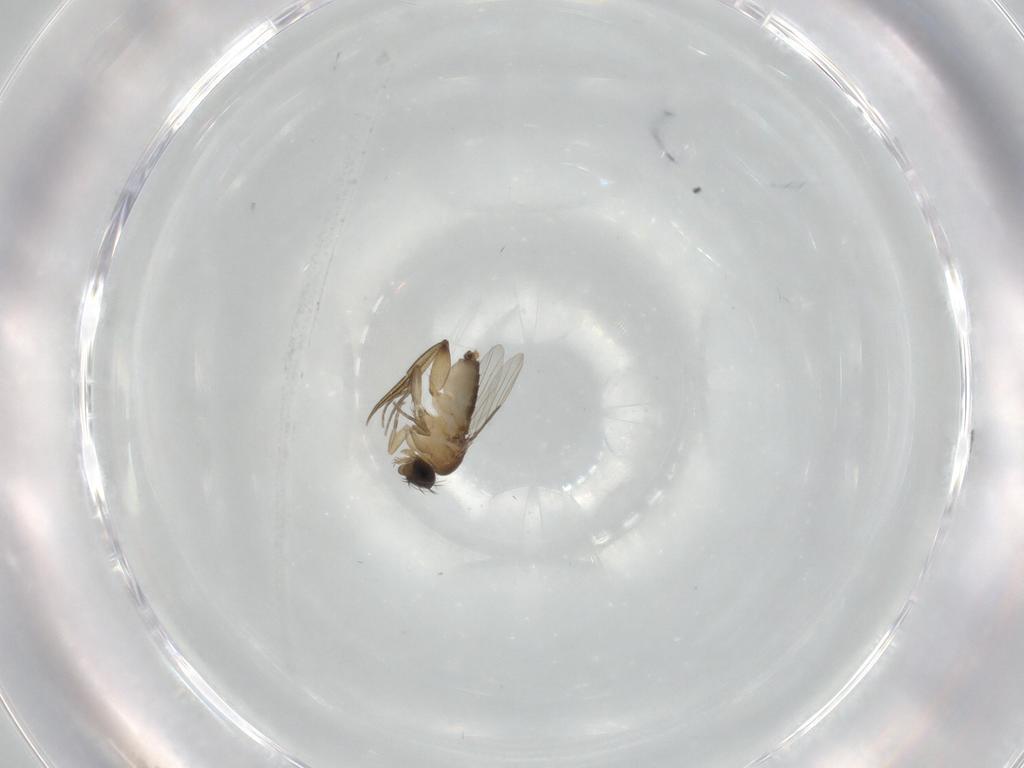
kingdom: Animalia
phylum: Arthropoda
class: Insecta
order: Diptera
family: Phoridae
